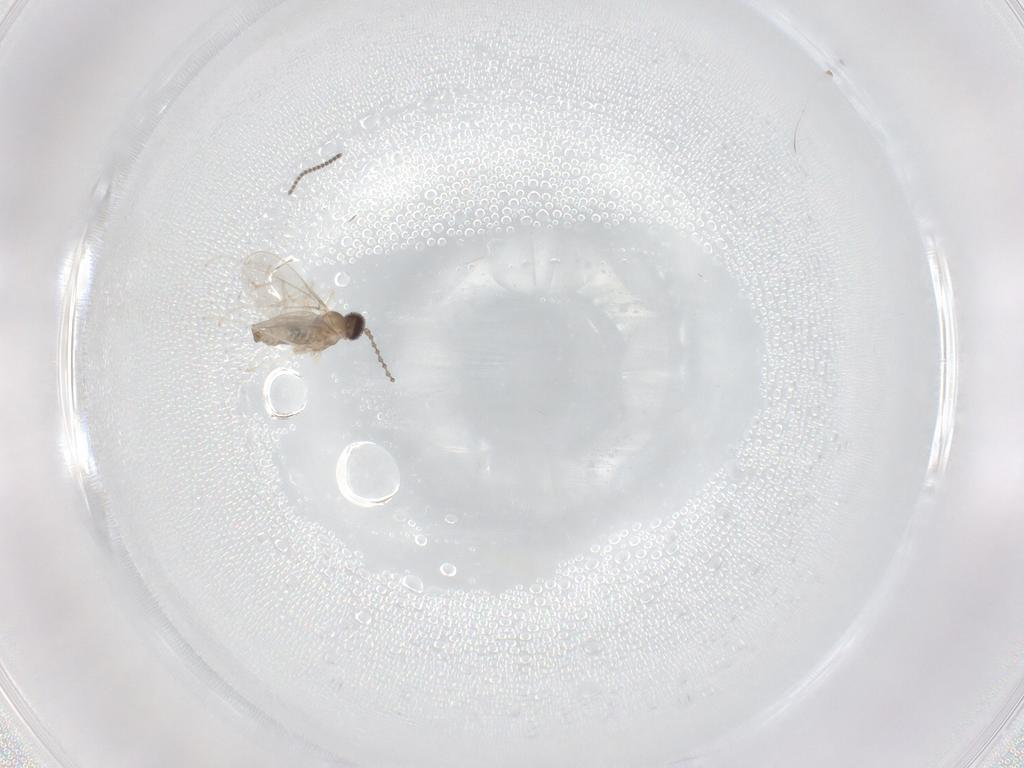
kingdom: Animalia
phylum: Arthropoda
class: Insecta
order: Diptera
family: Cecidomyiidae
